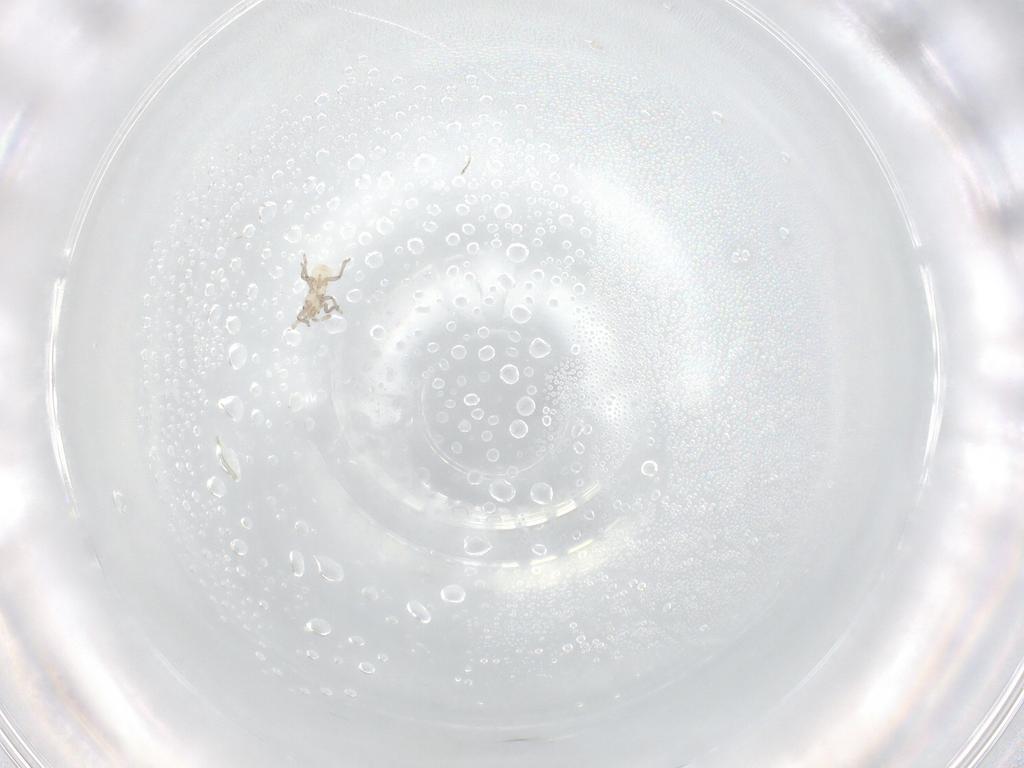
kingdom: Animalia
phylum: Arthropoda
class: Insecta
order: Hemiptera
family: Aphididae
